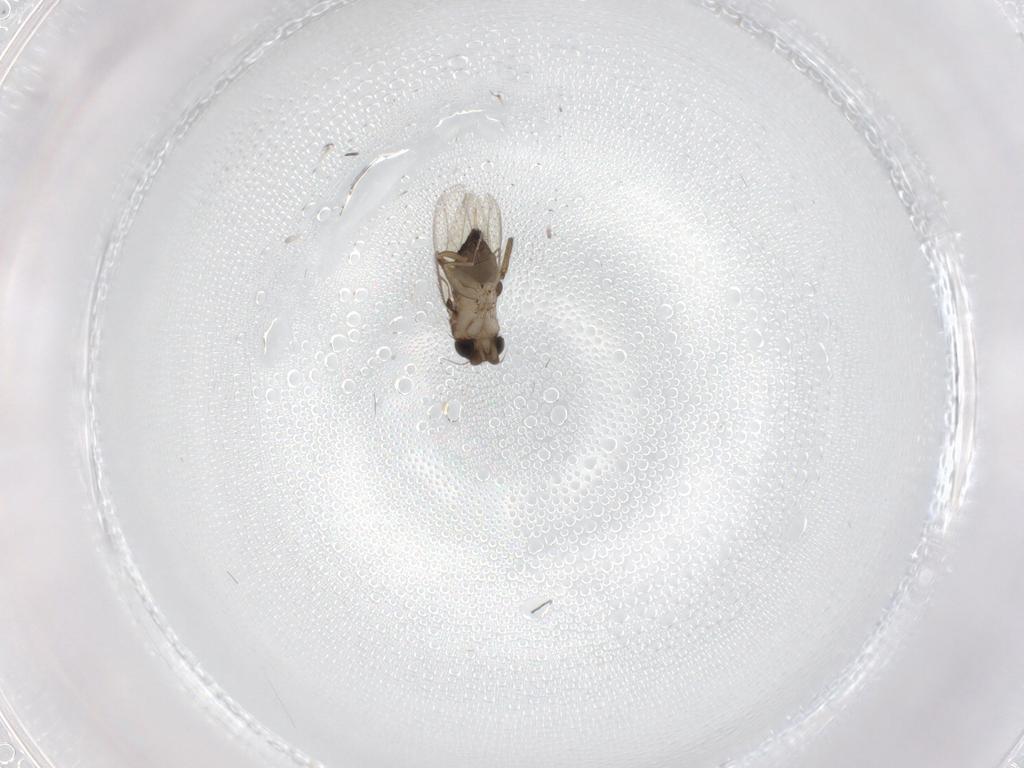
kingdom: Animalia
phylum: Arthropoda
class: Insecta
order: Diptera
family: Phoridae
